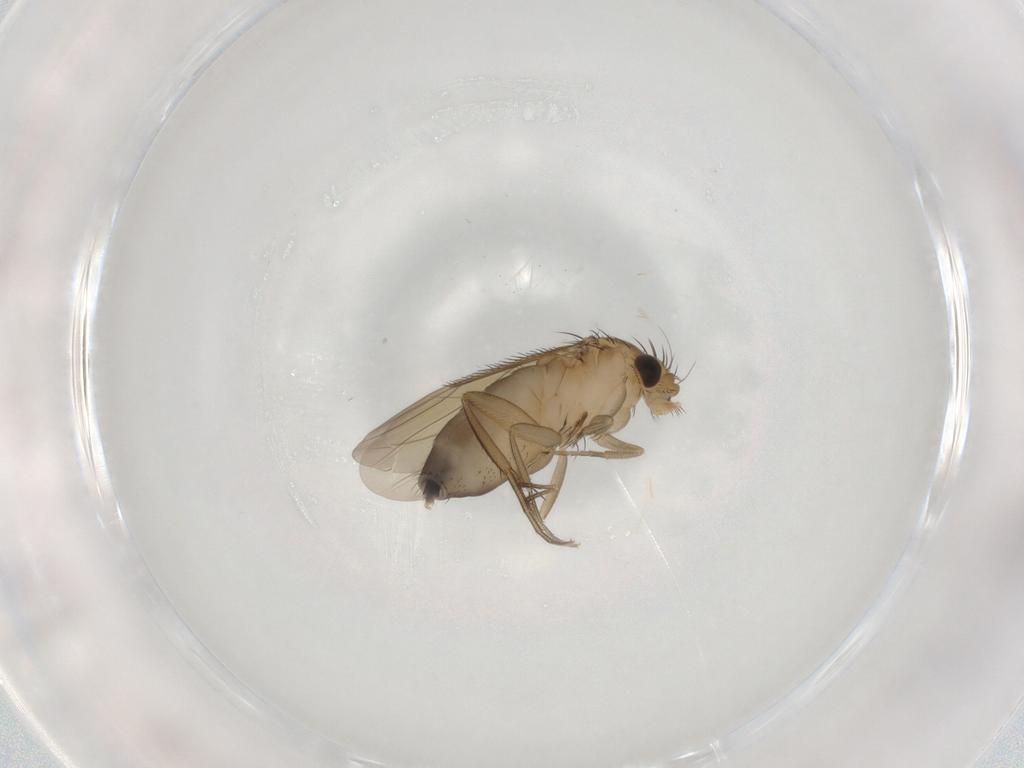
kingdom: Animalia
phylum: Arthropoda
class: Insecta
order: Diptera
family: Phoridae
